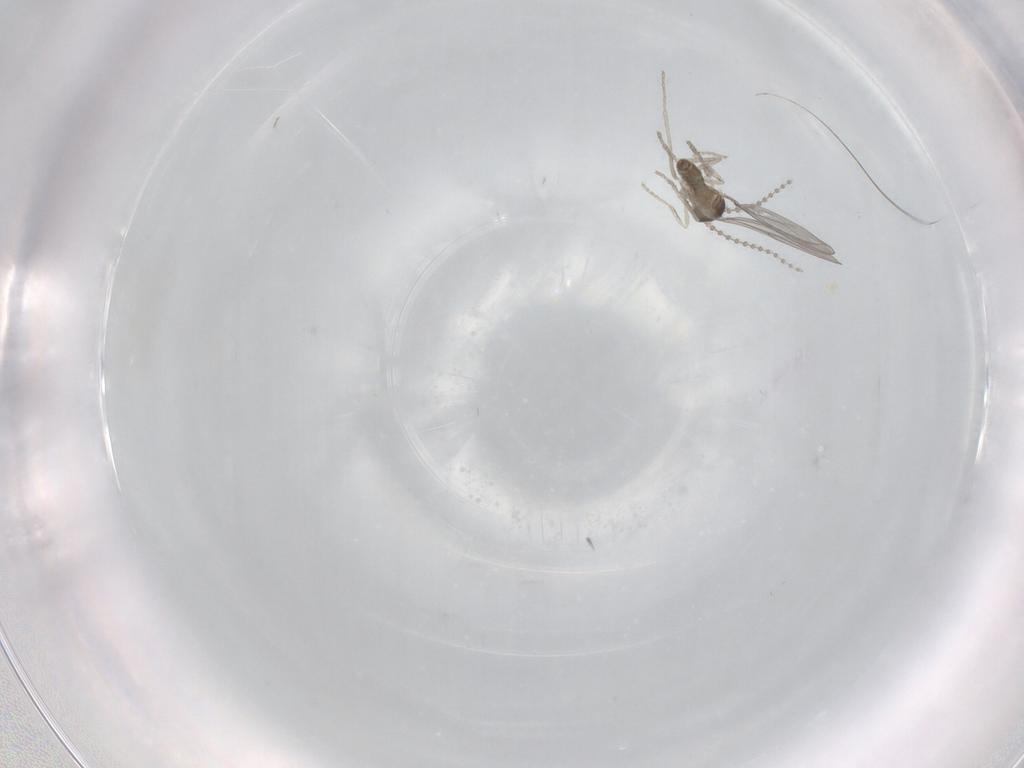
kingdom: Animalia
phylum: Arthropoda
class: Insecta
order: Diptera
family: Cecidomyiidae
